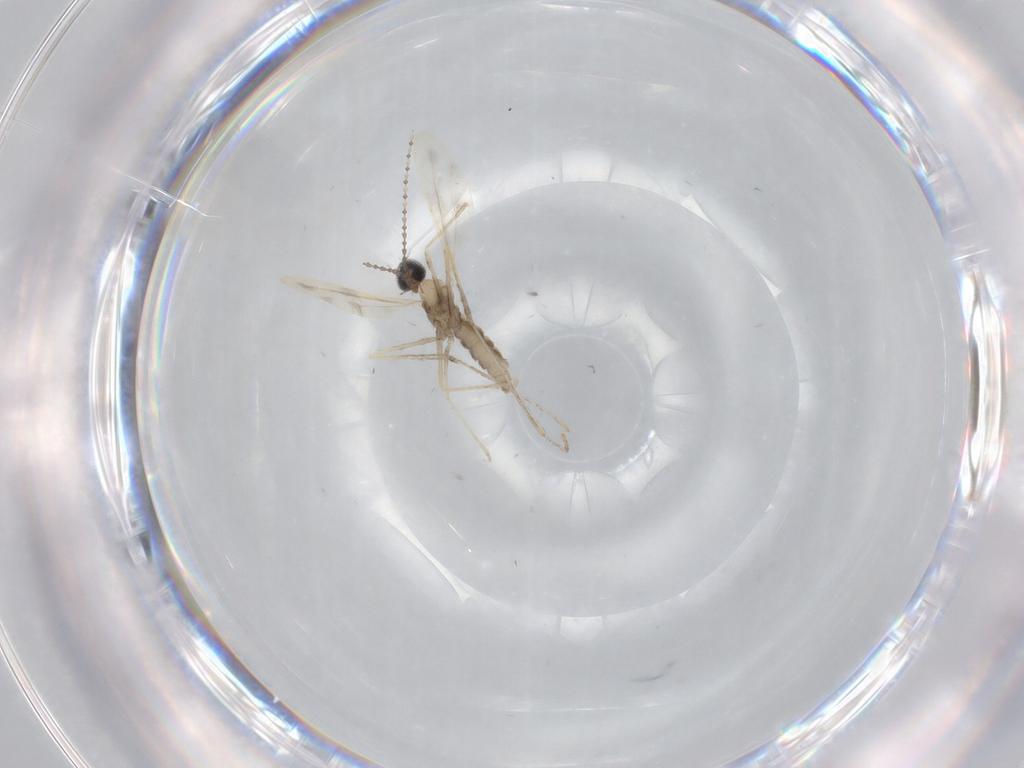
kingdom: Animalia
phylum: Arthropoda
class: Insecta
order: Diptera
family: Cecidomyiidae
